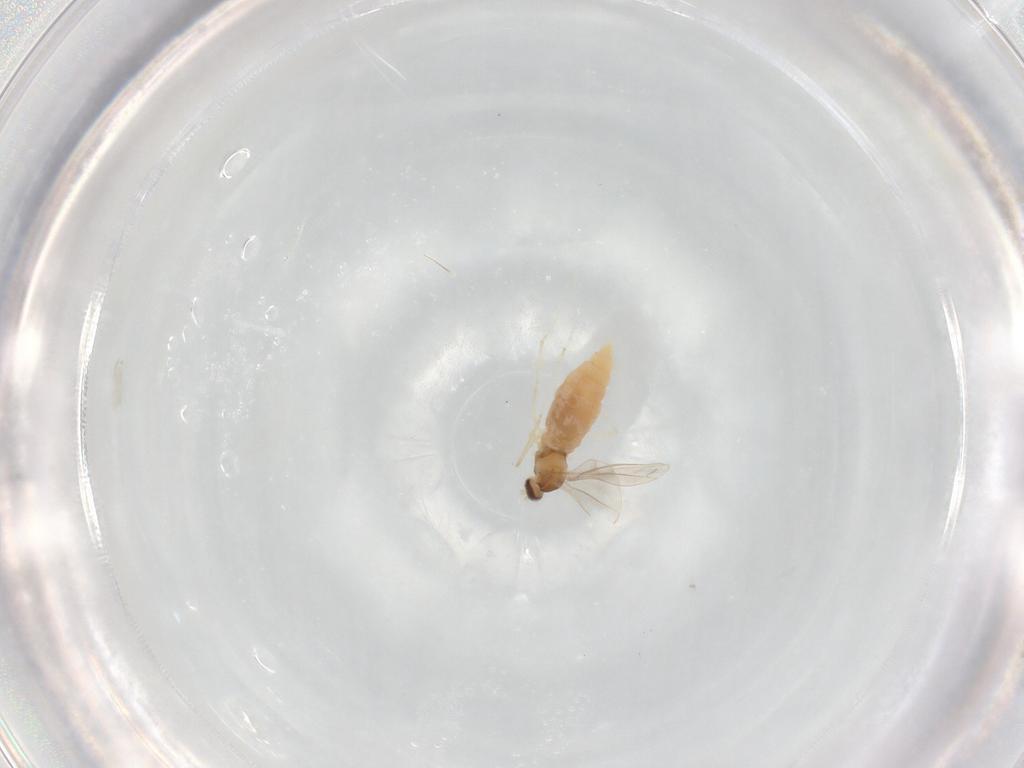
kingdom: Animalia
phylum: Arthropoda
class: Insecta
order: Diptera
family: Cecidomyiidae
